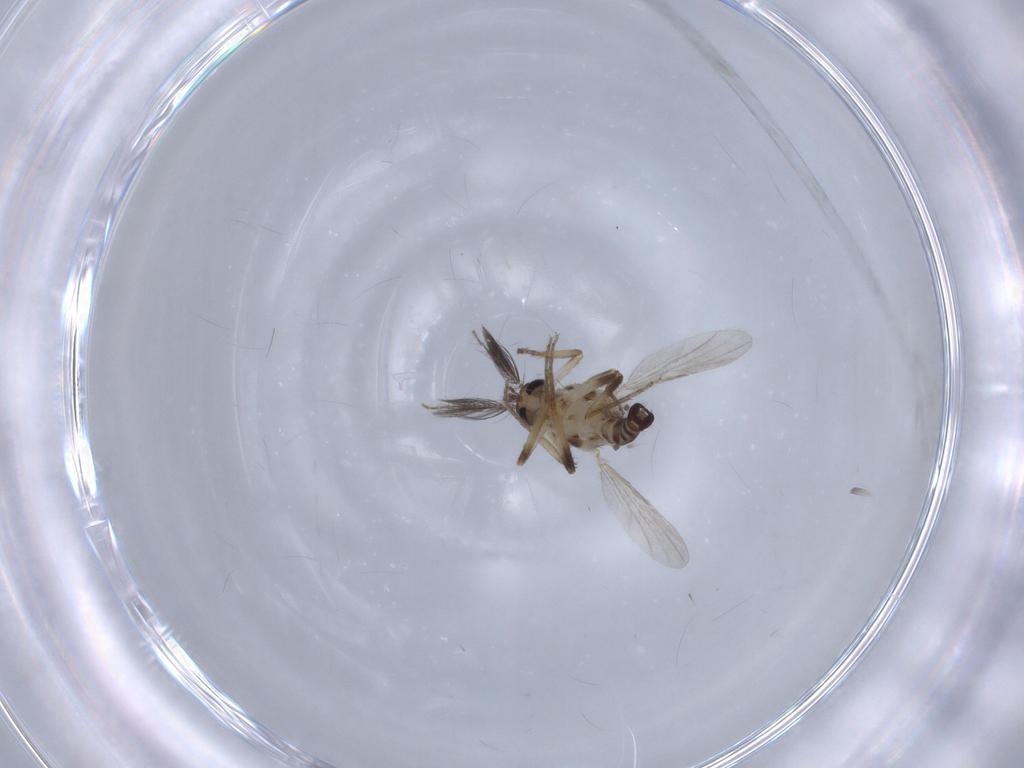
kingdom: Animalia
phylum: Arthropoda
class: Insecta
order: Diptera
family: Ceratopogonidae
